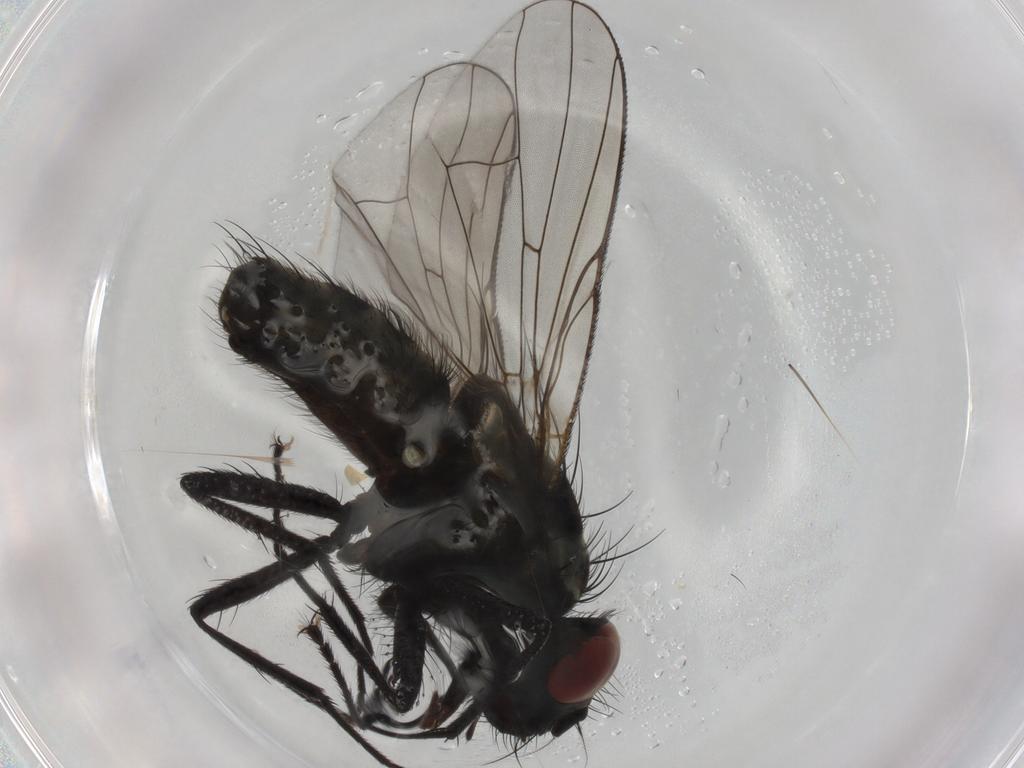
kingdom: Animalia
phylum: Arthropoda
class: Insecta
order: Diptera
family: Muscidae
